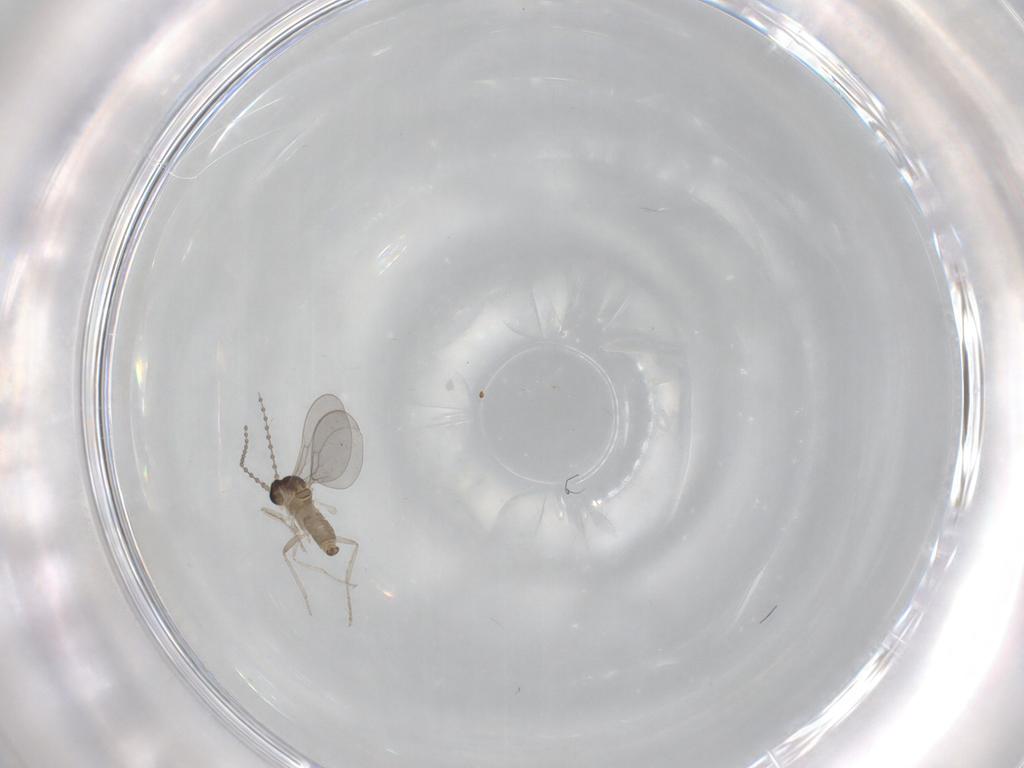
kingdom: Animalia
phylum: Arthropoda
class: Insecta
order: Diptera
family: Cecidomyiidae
